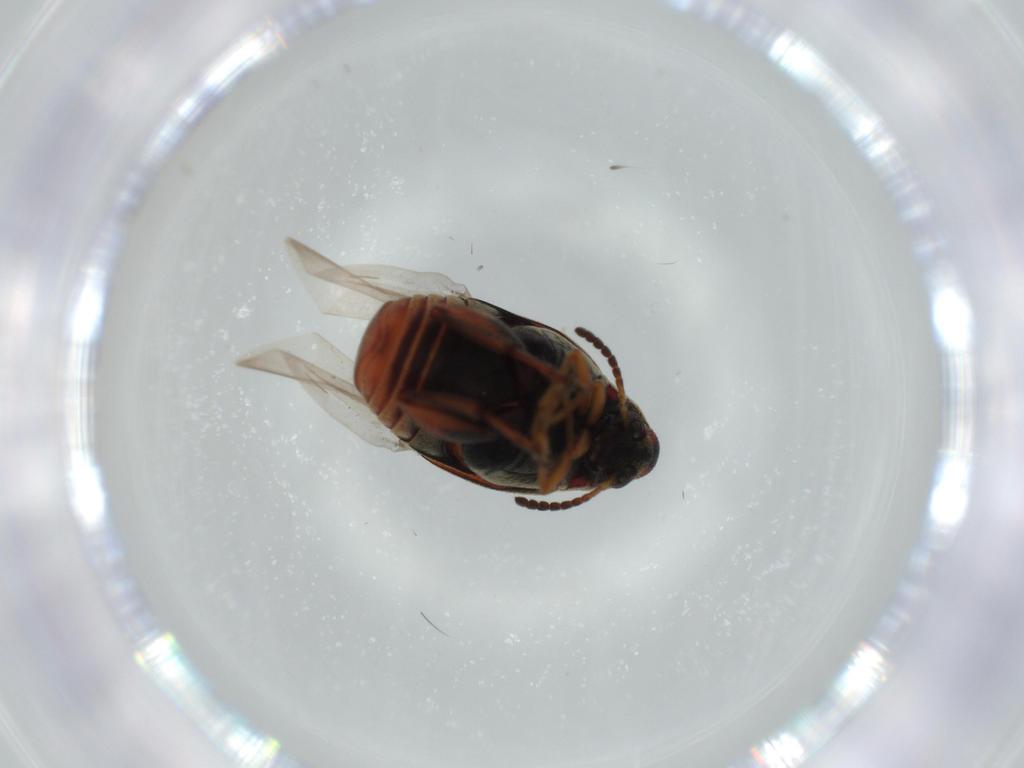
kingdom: Animalia
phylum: Arthropoda
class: Insecta
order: Coleoptera
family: Chrysomelidae
